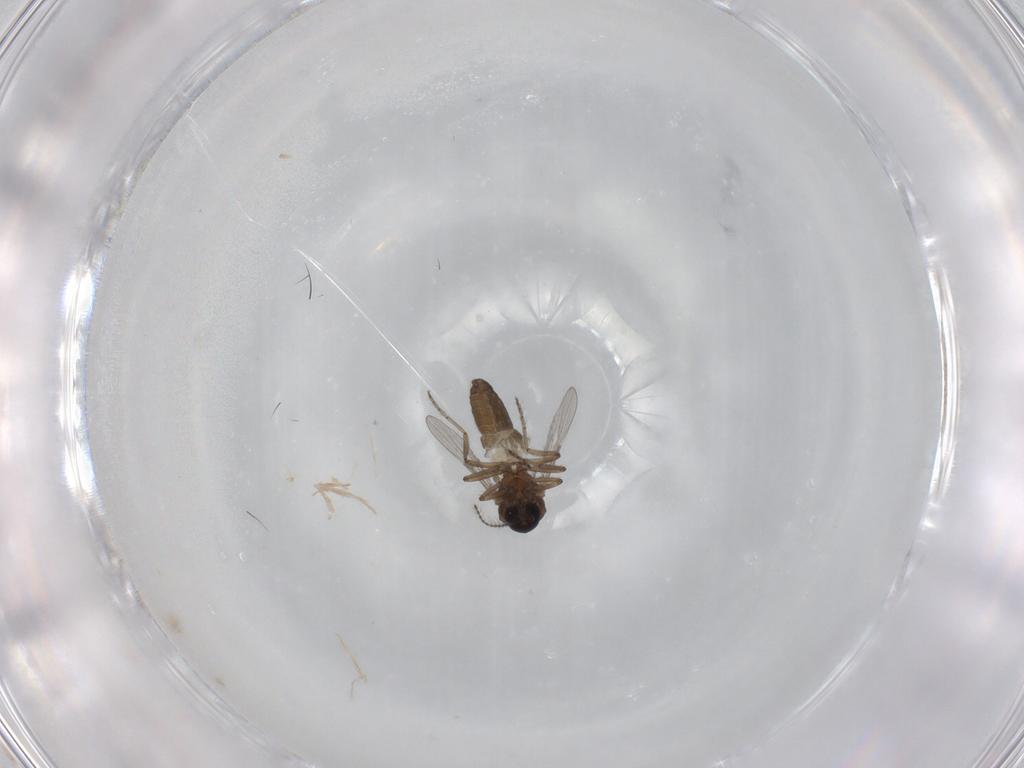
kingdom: Animalia
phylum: Arthropoda
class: Insecta
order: Diptera
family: Ceratopogonidae
